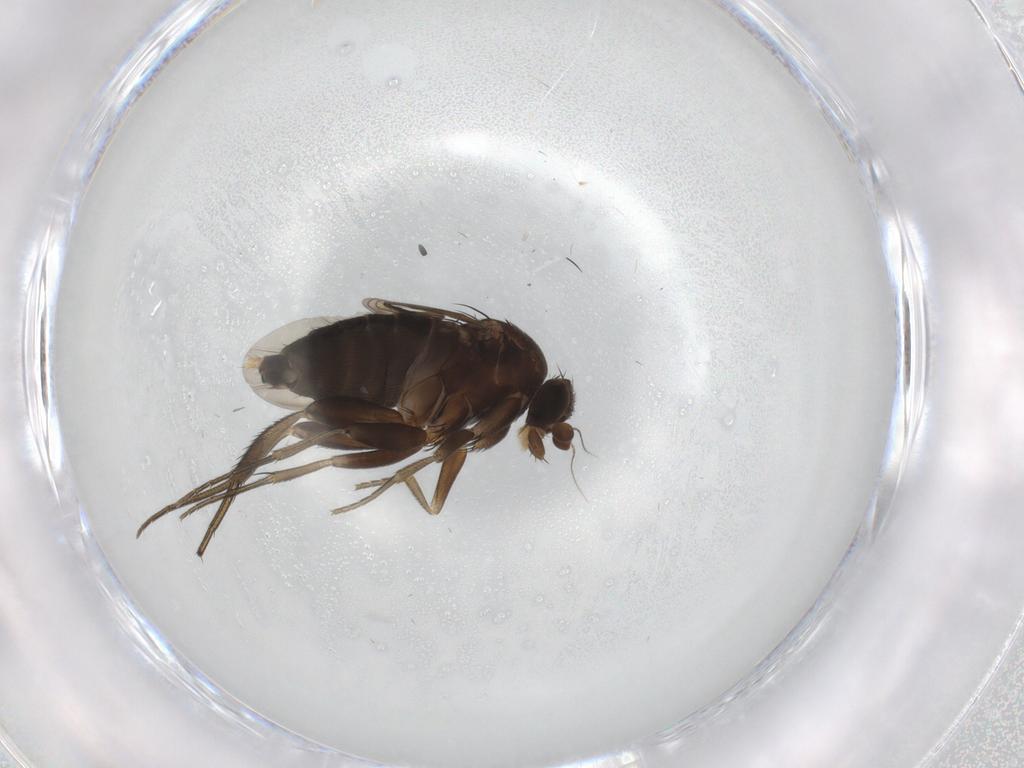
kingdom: Animalia
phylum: Arthropoda
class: Insecta
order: Diptera
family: Phoridae
